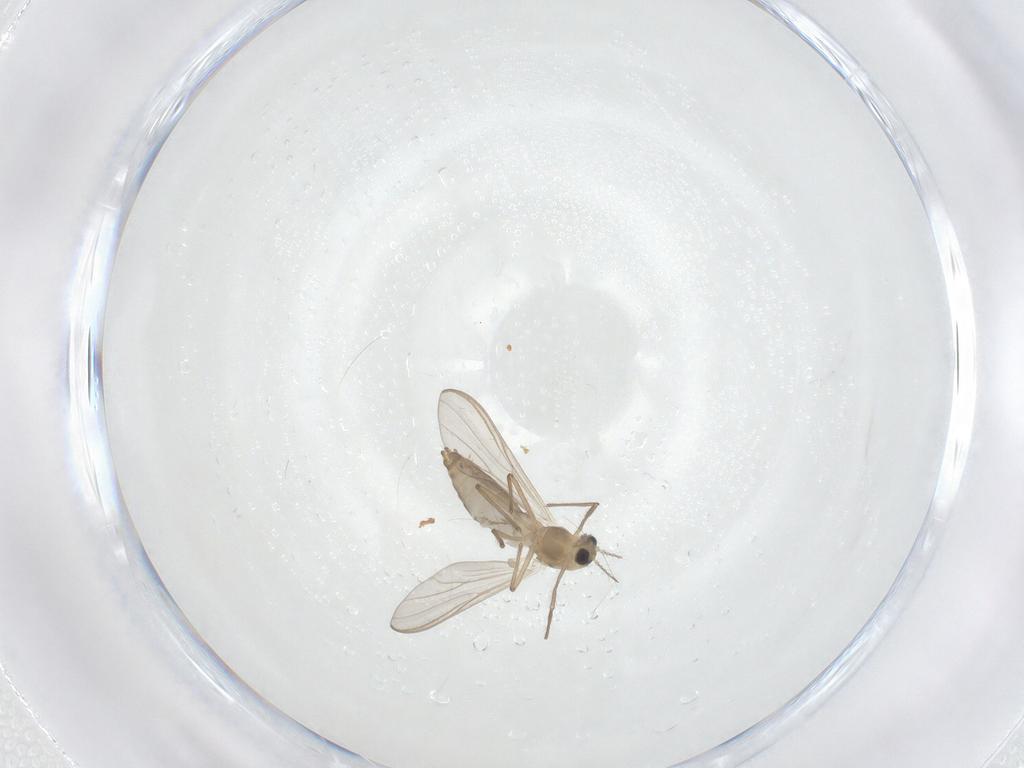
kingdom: Animalia
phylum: Arthropoda
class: Insecta
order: Diptera
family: Chironomidae
